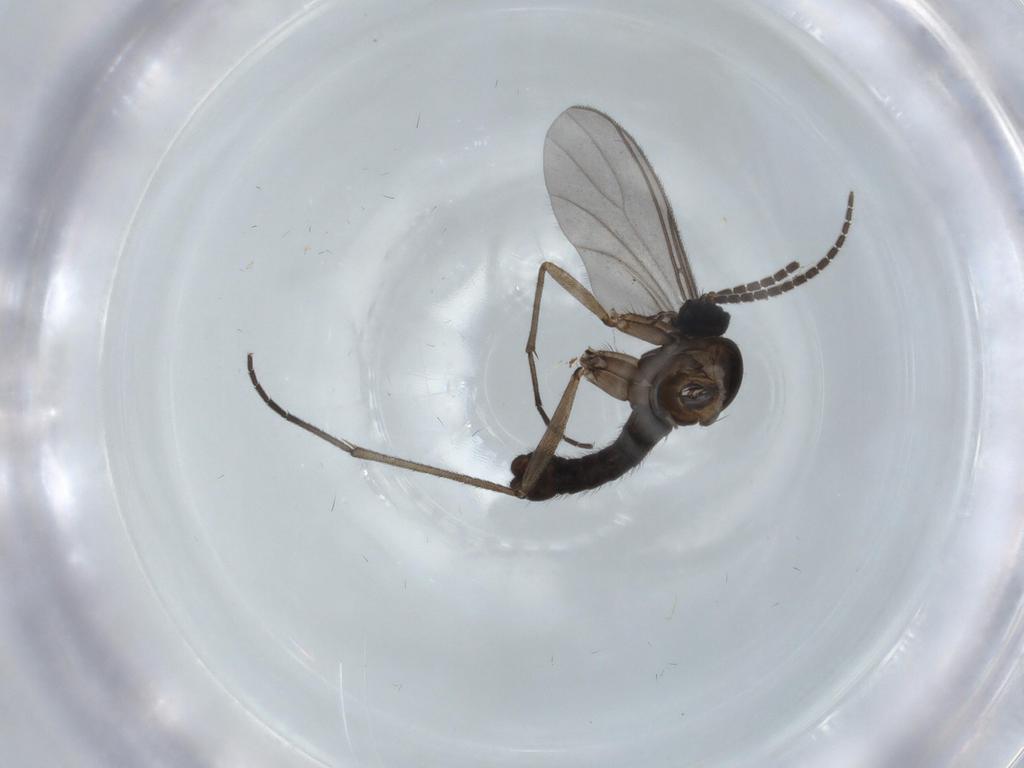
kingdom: Animalia
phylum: Arthropoda
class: Insecta
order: Diptera
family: Sciaridae
